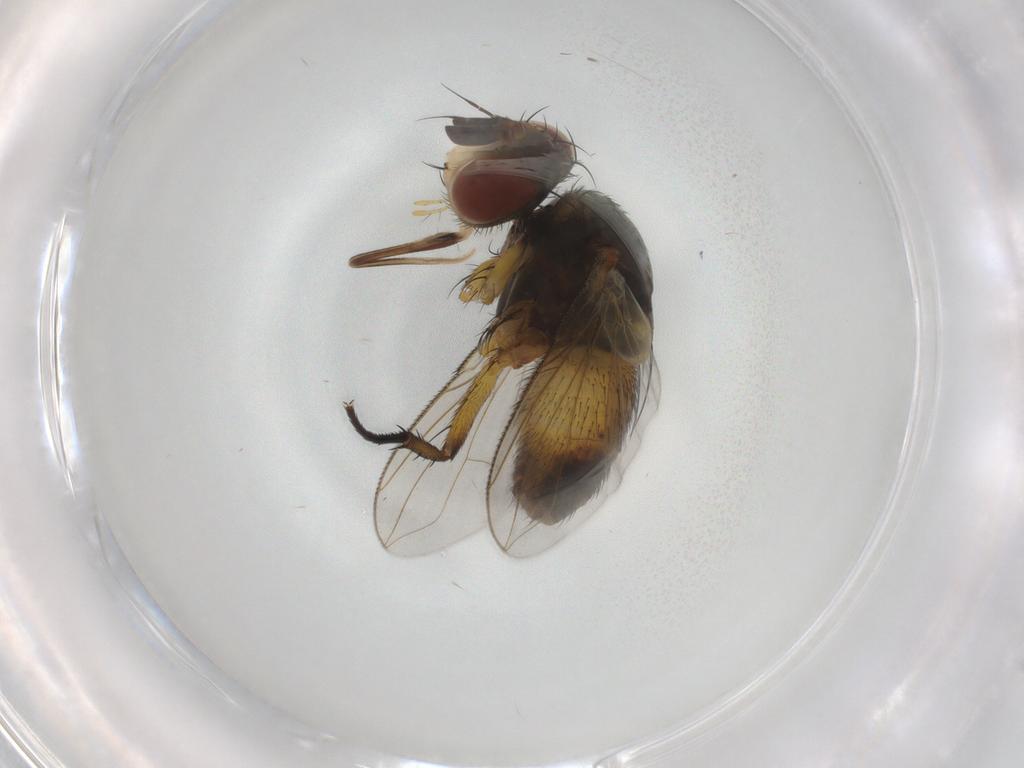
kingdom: Animalia
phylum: Arthropoda
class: Insecta
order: Diptera
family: Tachinidae
